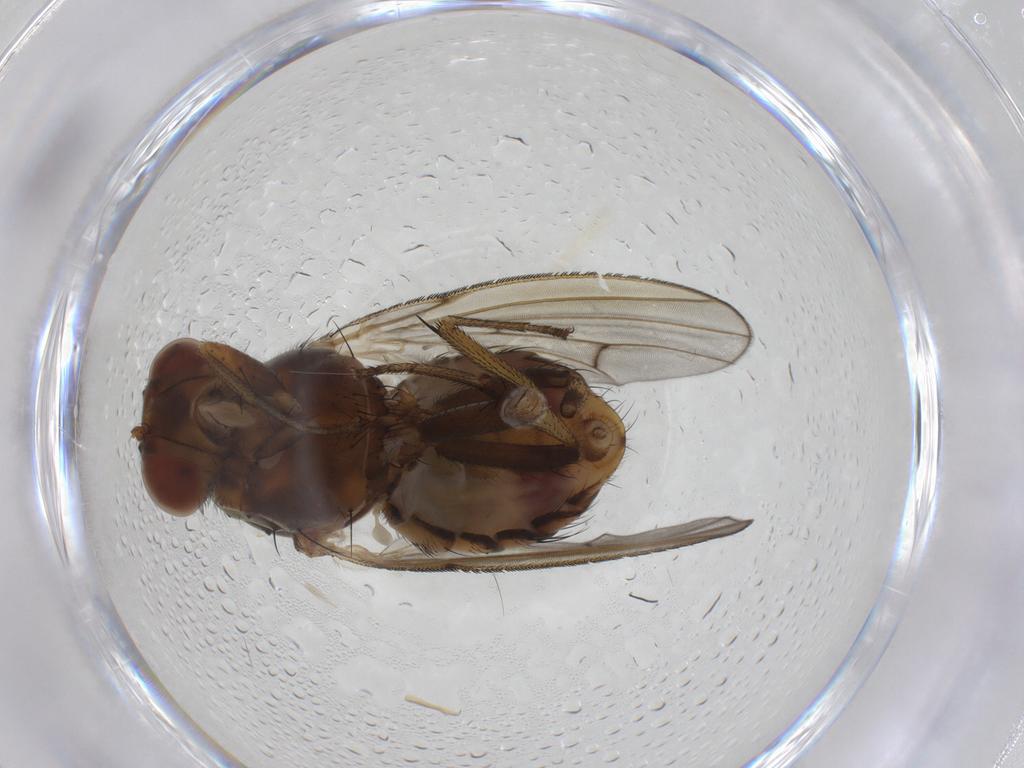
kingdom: Animalia
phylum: Arthropoda
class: Insecta
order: Diptera
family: Lauxaniidae
